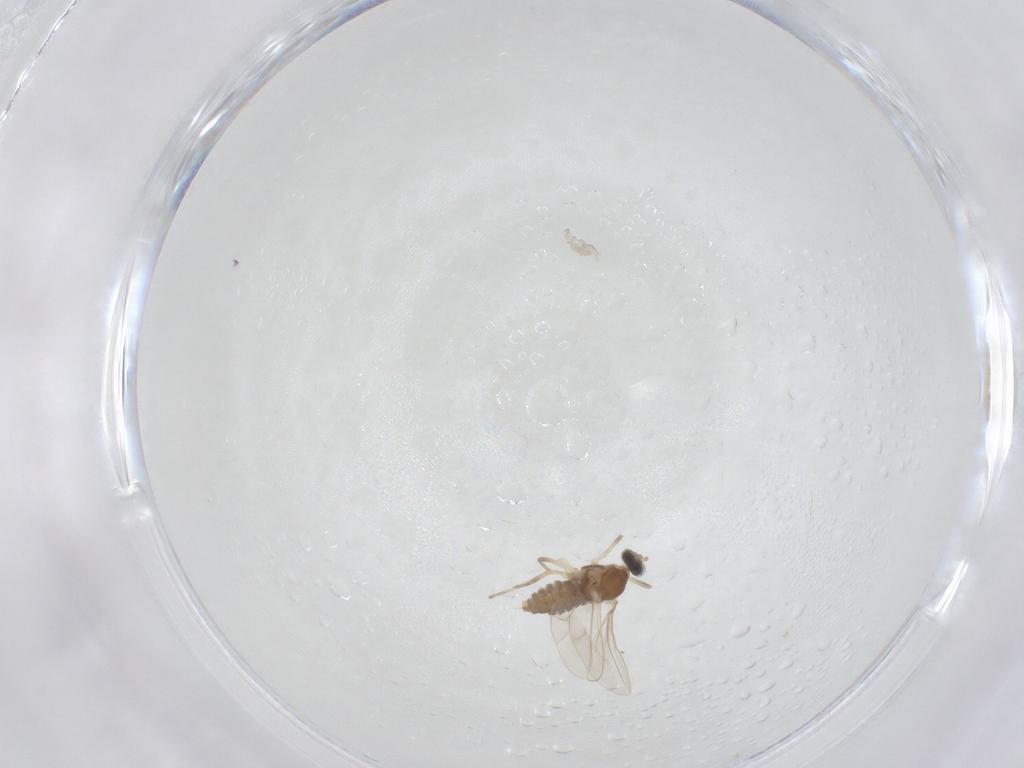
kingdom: Animalia
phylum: Arthropoda
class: Insecta
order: Diptera
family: Cecidomyiidae
